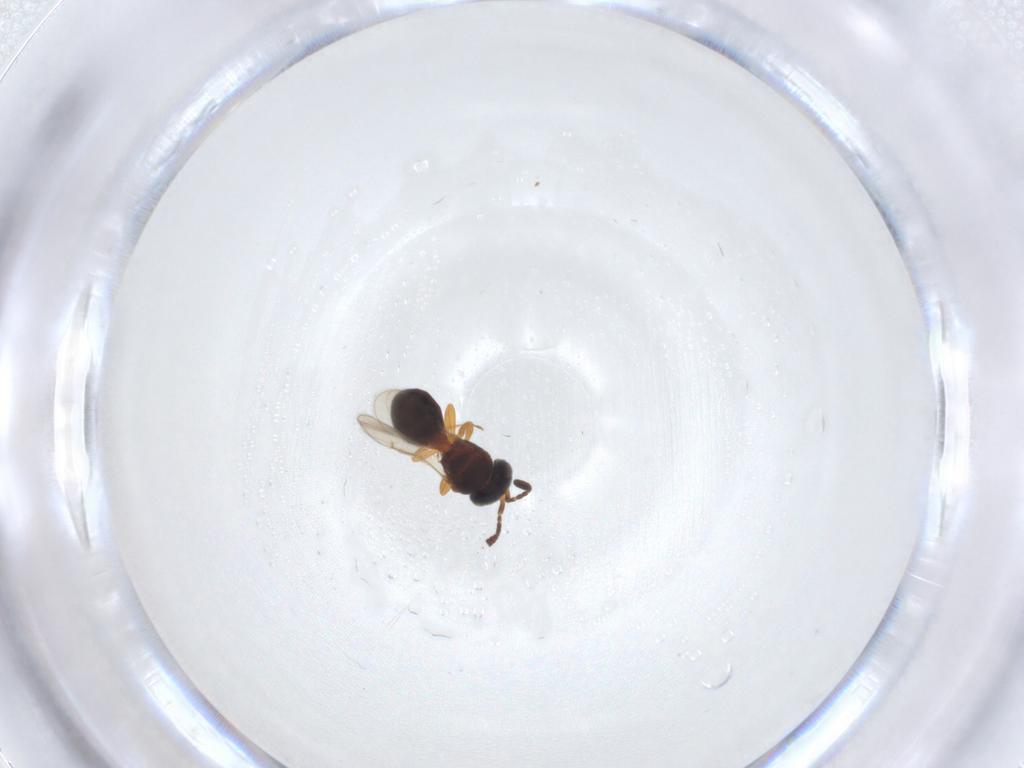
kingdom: Animalia
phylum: Arthropoda
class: Insecta
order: Hymenoptera
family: Scelionidae
